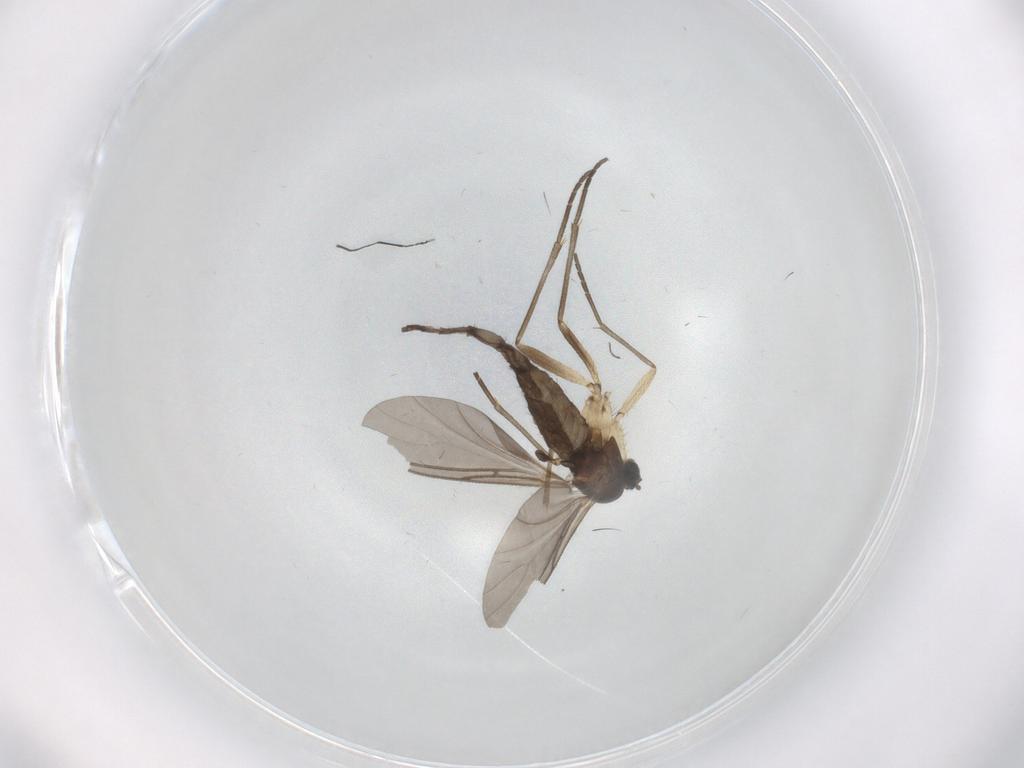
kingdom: Animalia
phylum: Arthropoda
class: Insecta
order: Diptera
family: Sciaridae
